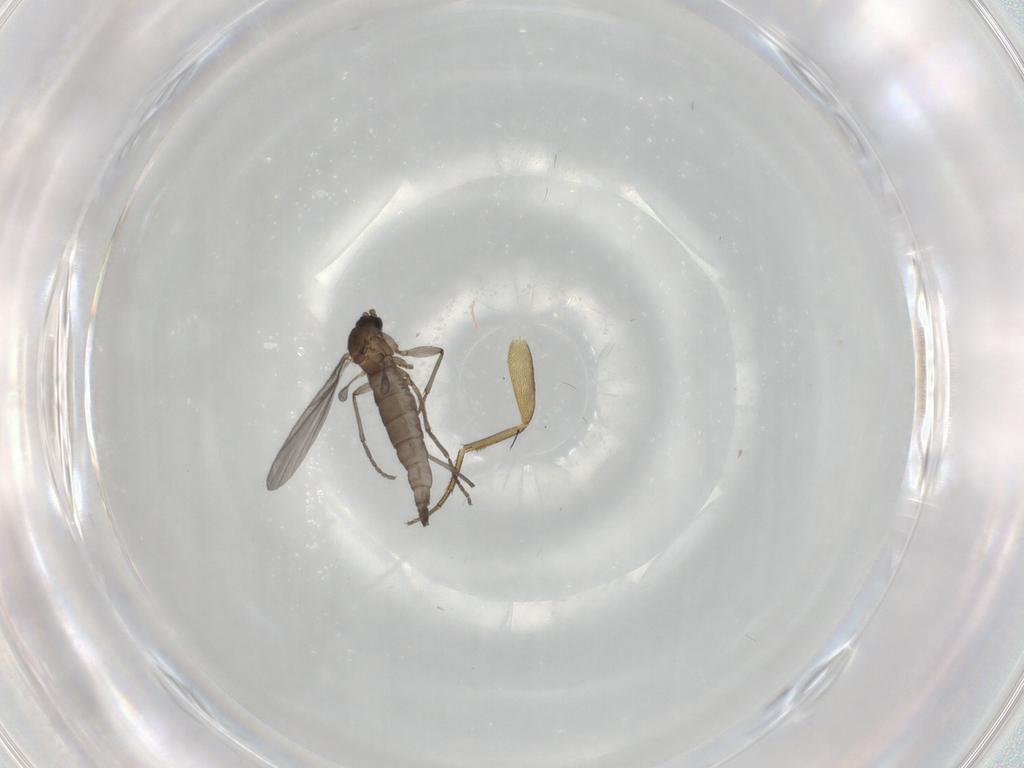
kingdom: Animalia
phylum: Arthropoda
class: Insecta
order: Diptera
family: Sciaridae
